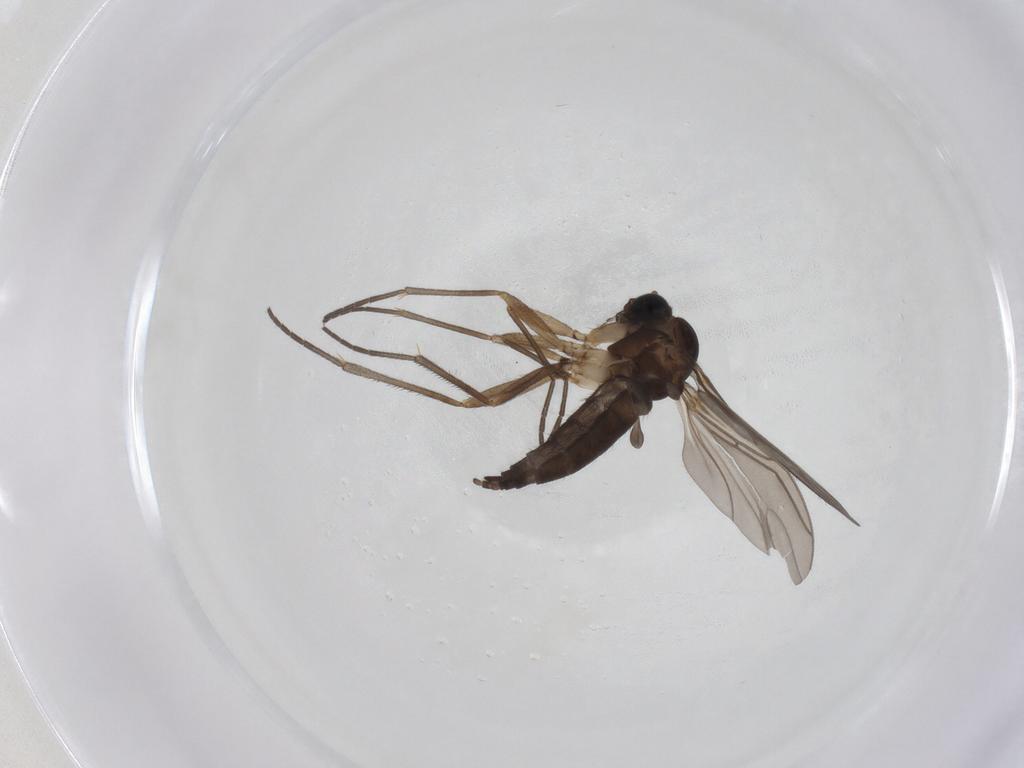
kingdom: Animalia
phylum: Arthropoda
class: Insecta
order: Diptera
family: Sciaridae
